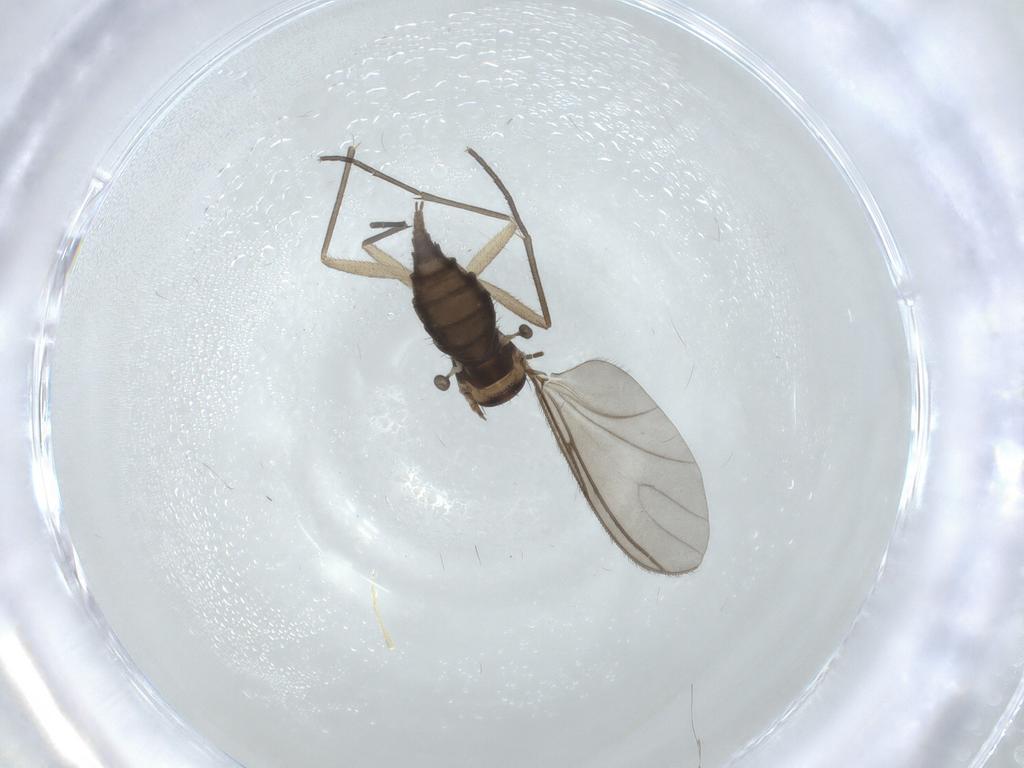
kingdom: Animalia
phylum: Arthropoda
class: Insecta
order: Diptera
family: Sciaridae
